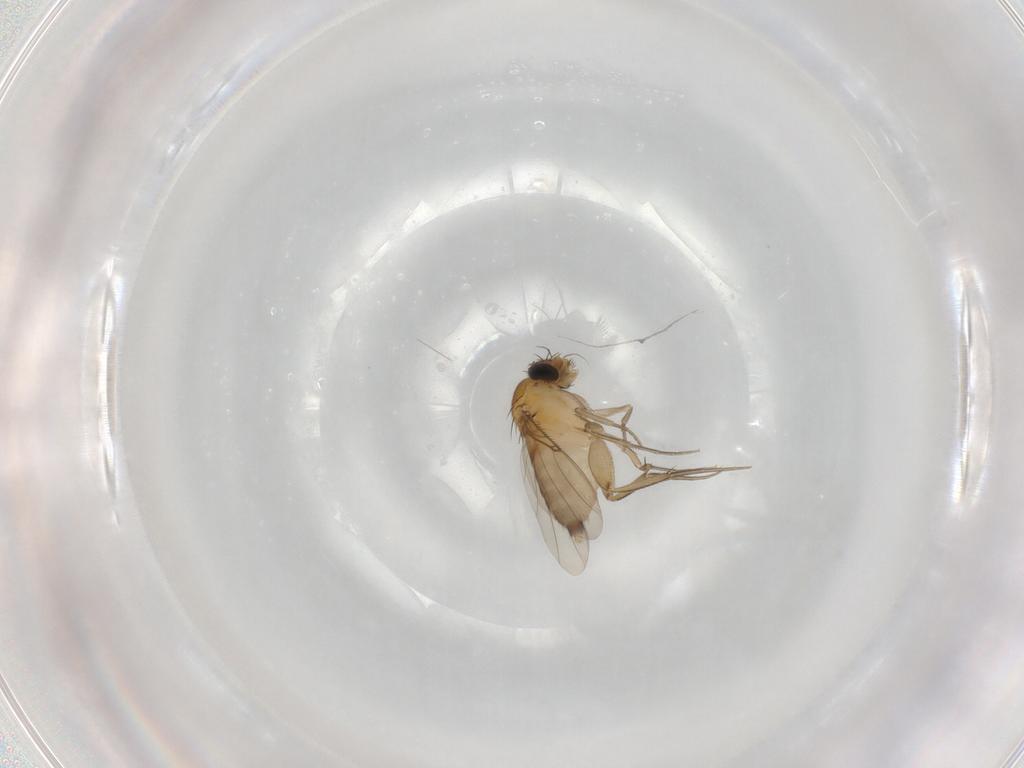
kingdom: Animalia
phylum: Arthropoda
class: Insecta
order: Diptera
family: Phoridae
